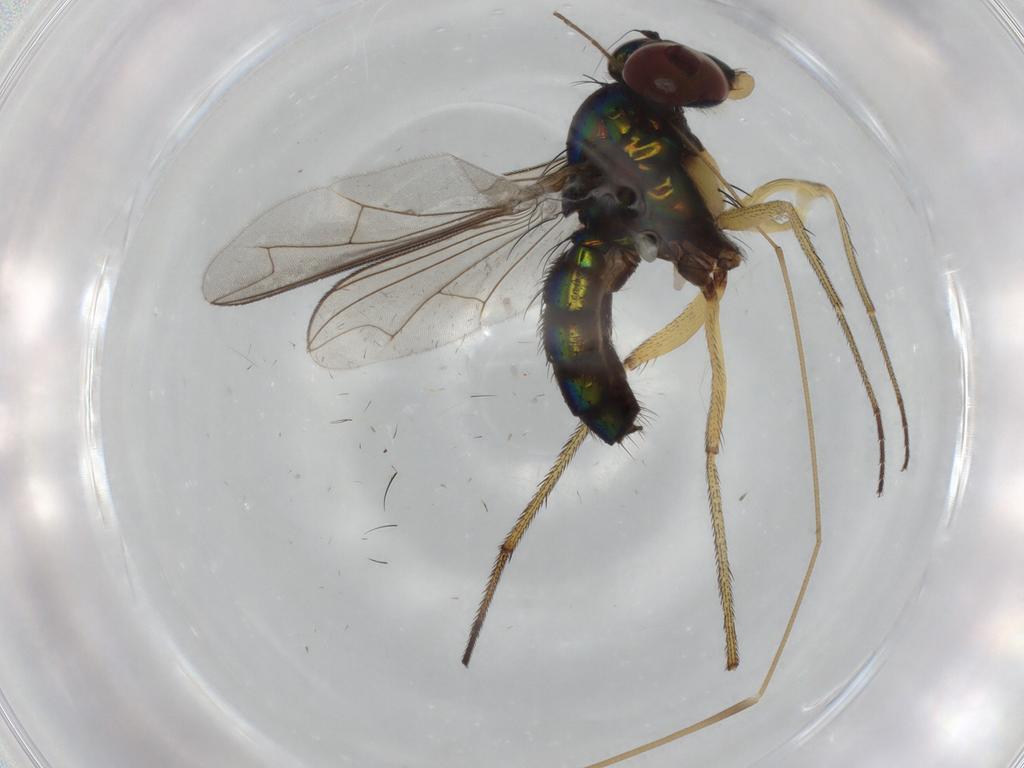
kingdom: Animalia
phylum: Arthropoda
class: Insecta
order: Diptera
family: Dolichopodidae
